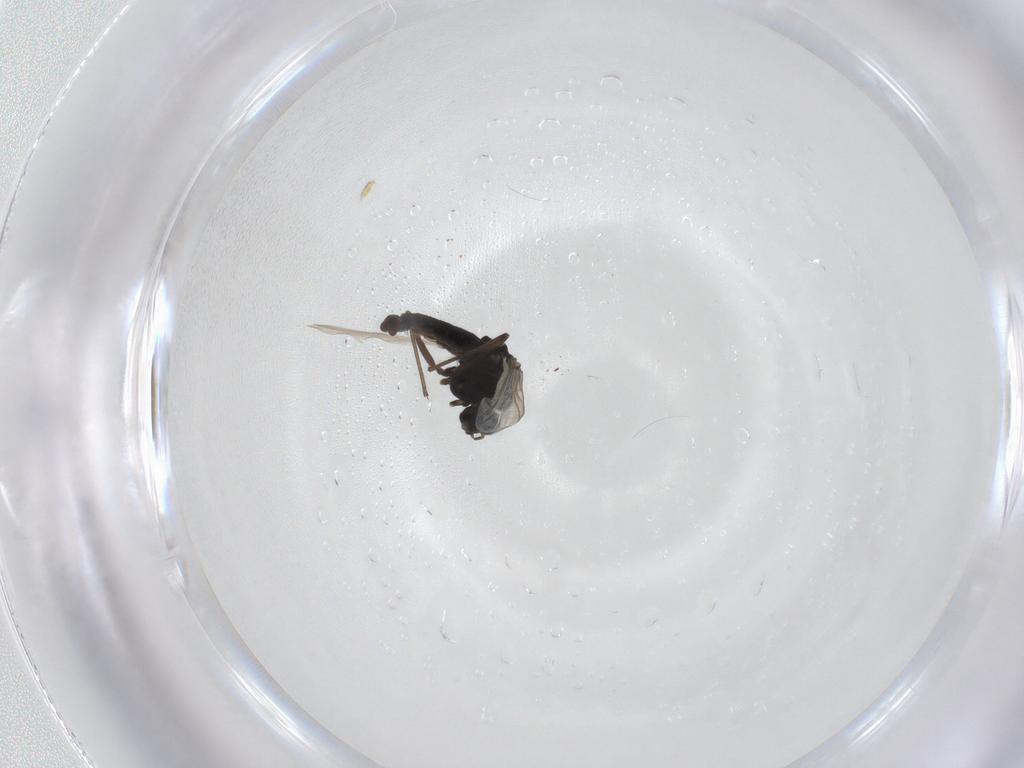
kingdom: Animalia
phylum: Arthropoda
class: Insecta
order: Diptera
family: Chironomidae
